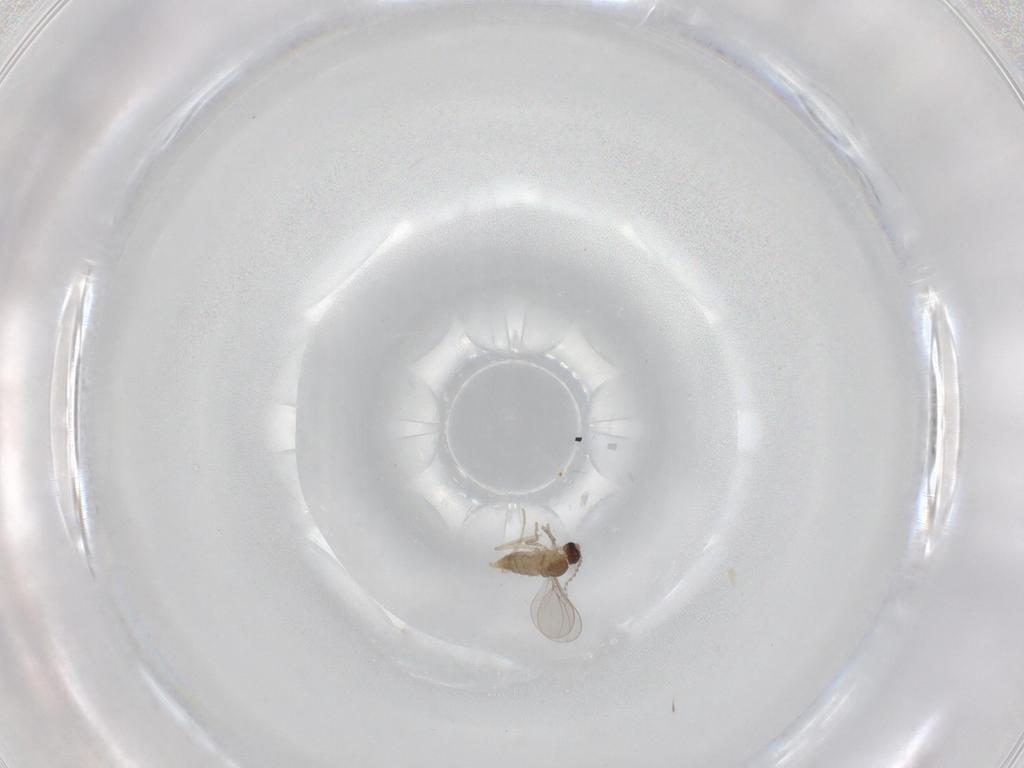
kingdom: Animalia
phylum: Arthropoda
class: Insecta
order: Diptera
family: Cecidomyiidae
